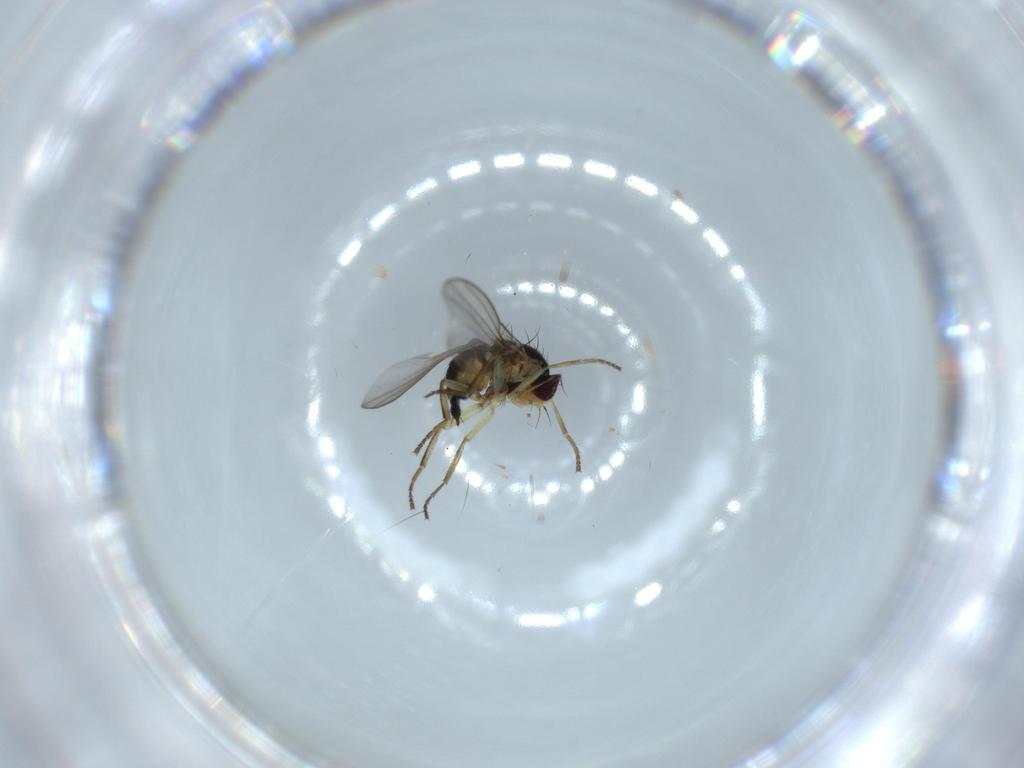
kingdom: Animalia
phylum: Arthropoda
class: Insecta
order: Diptera
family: Agromyzidae
